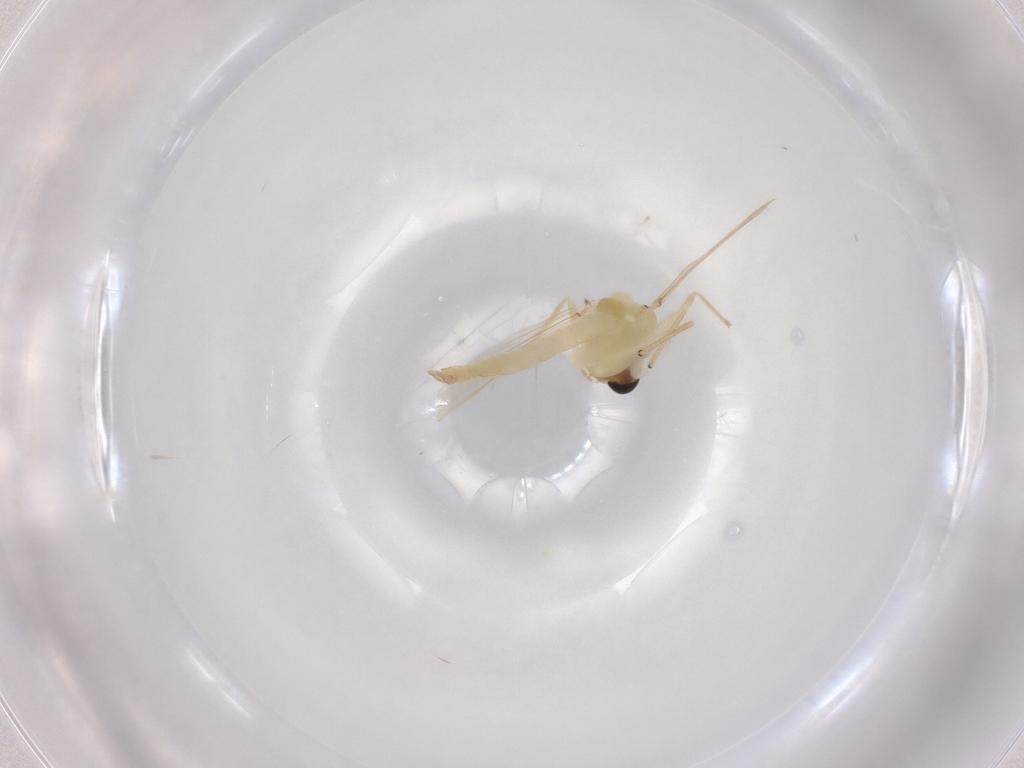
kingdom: Animalia
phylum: Arthropoda
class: Insecta
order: Diptera
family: Chironomidae
